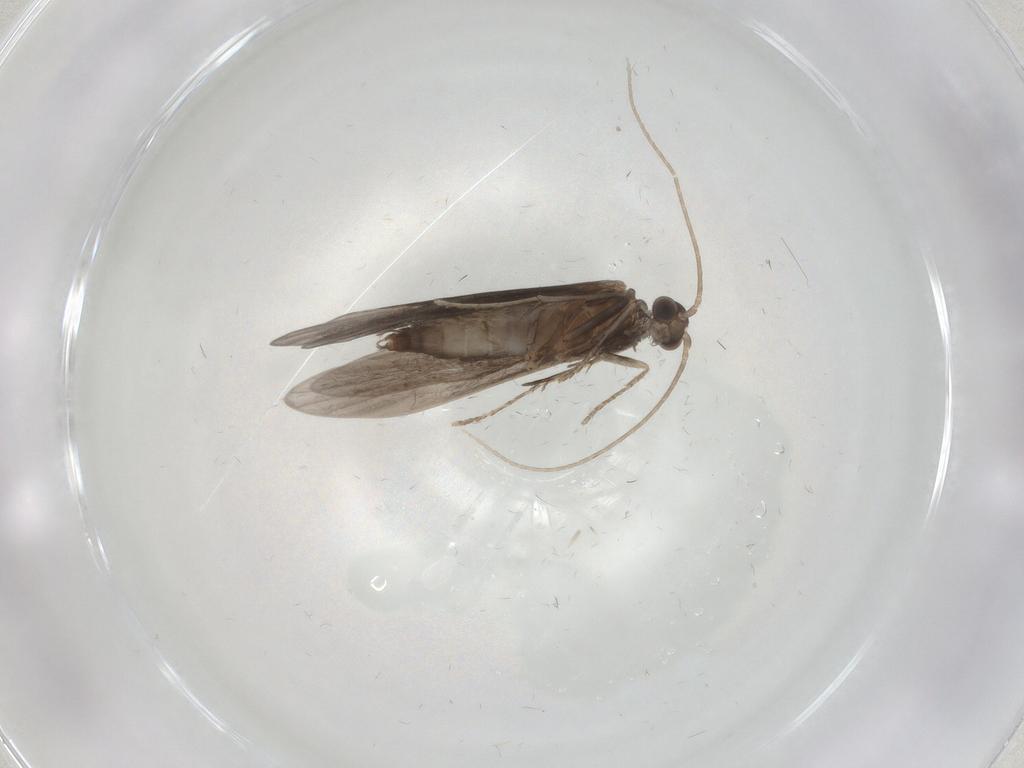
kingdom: Animalia
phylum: Arthropoda
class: Insecta
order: Trichoptera
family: Xiphocentronidae
